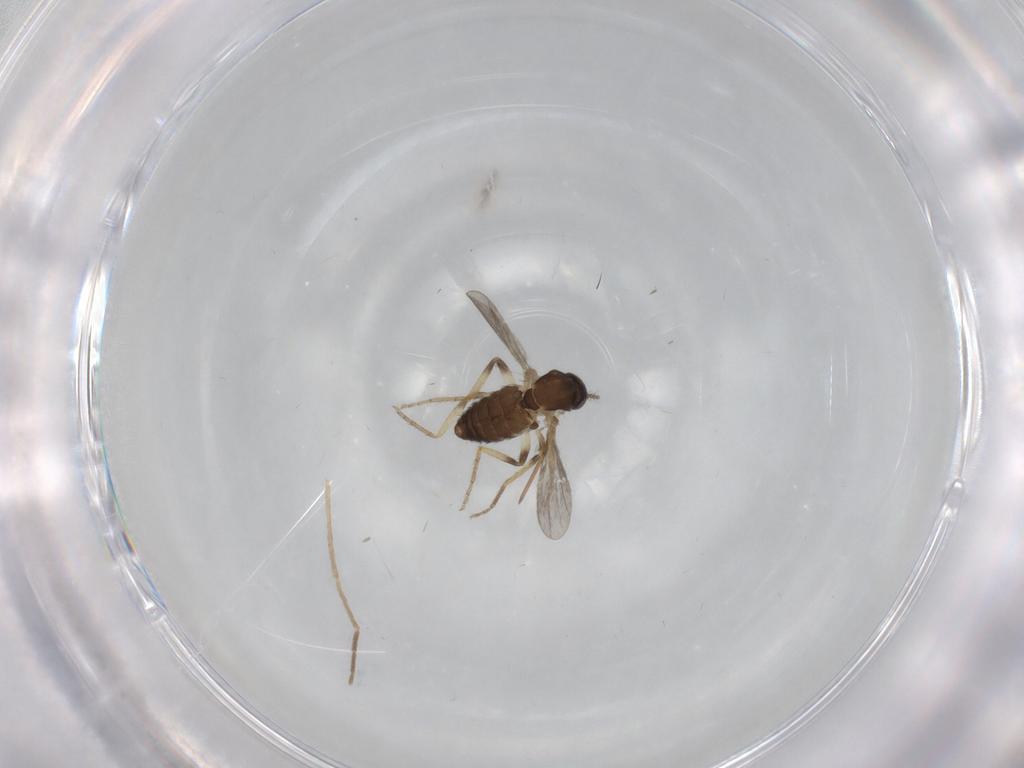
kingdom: Animalia
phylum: Arthropoda
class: Insecta
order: Diptera
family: Ceratopogonidae
